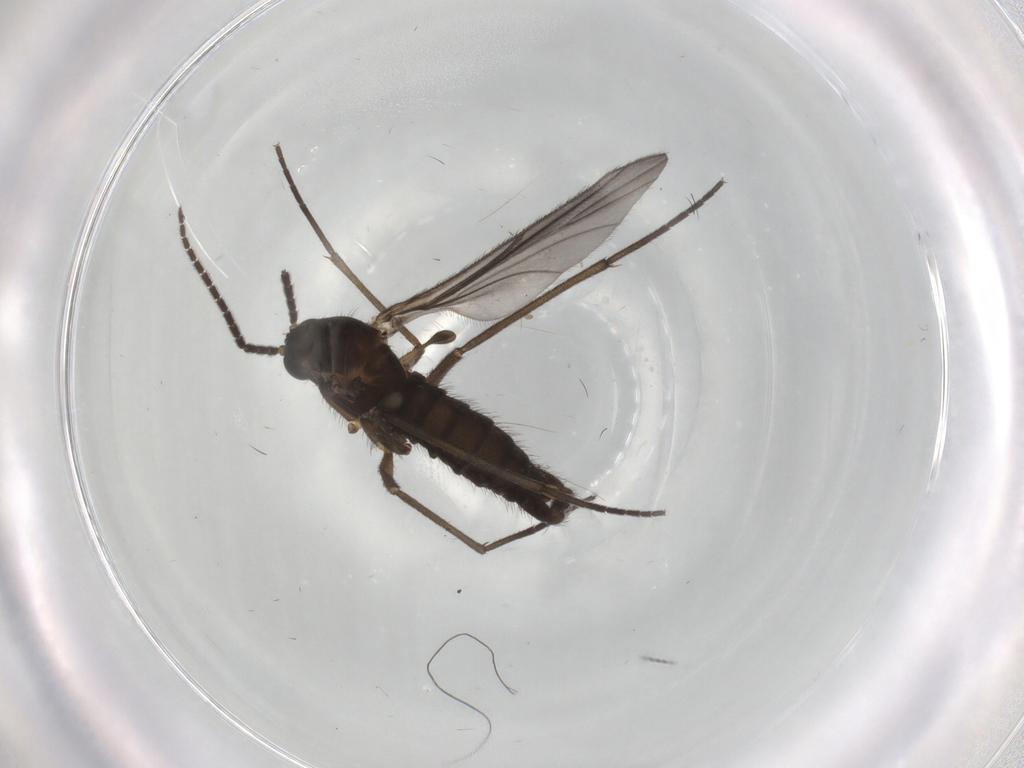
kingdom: Animalia
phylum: Arthropoda
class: Insecta
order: Diptera
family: Sciaridae
